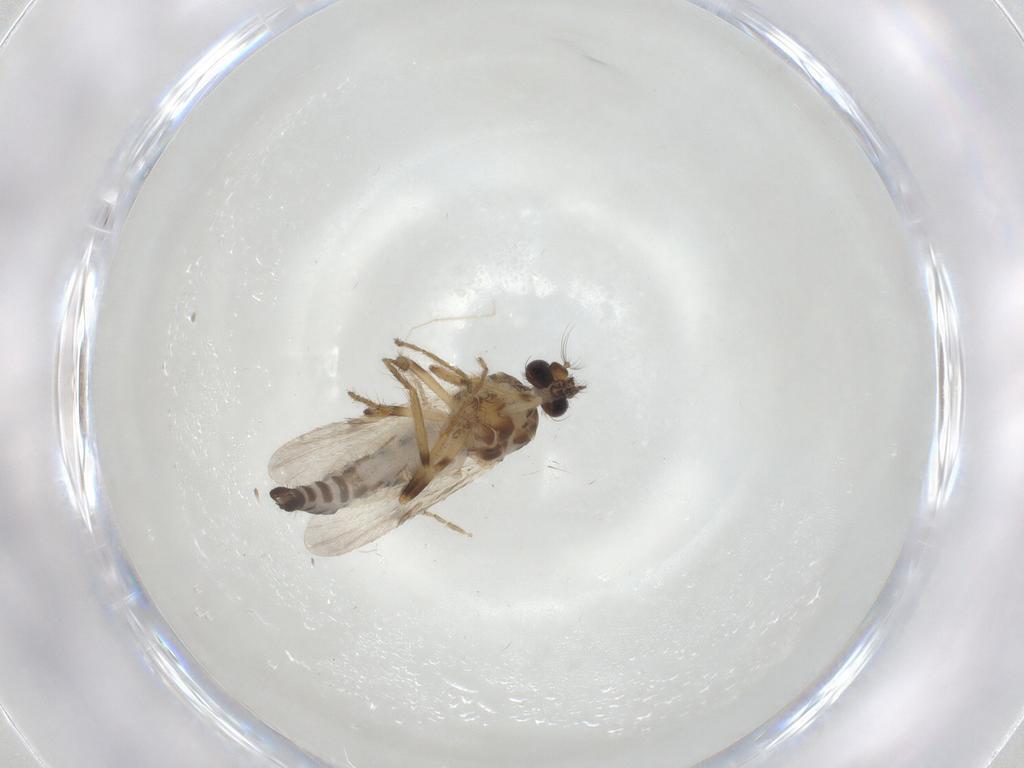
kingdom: Animalia
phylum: Arthropoda
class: Insecta
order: Diptera
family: Ceratopogonidae
